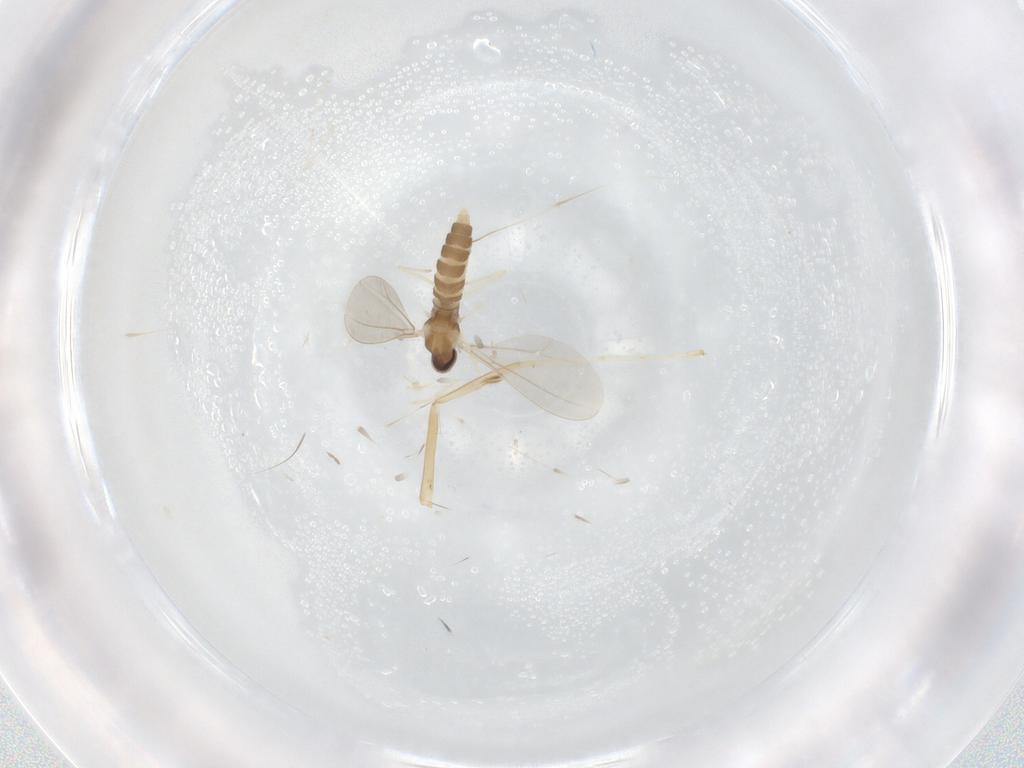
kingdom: Animalia
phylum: Arthropoda
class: Insecta
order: Diptera
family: Cecidomyiidae
